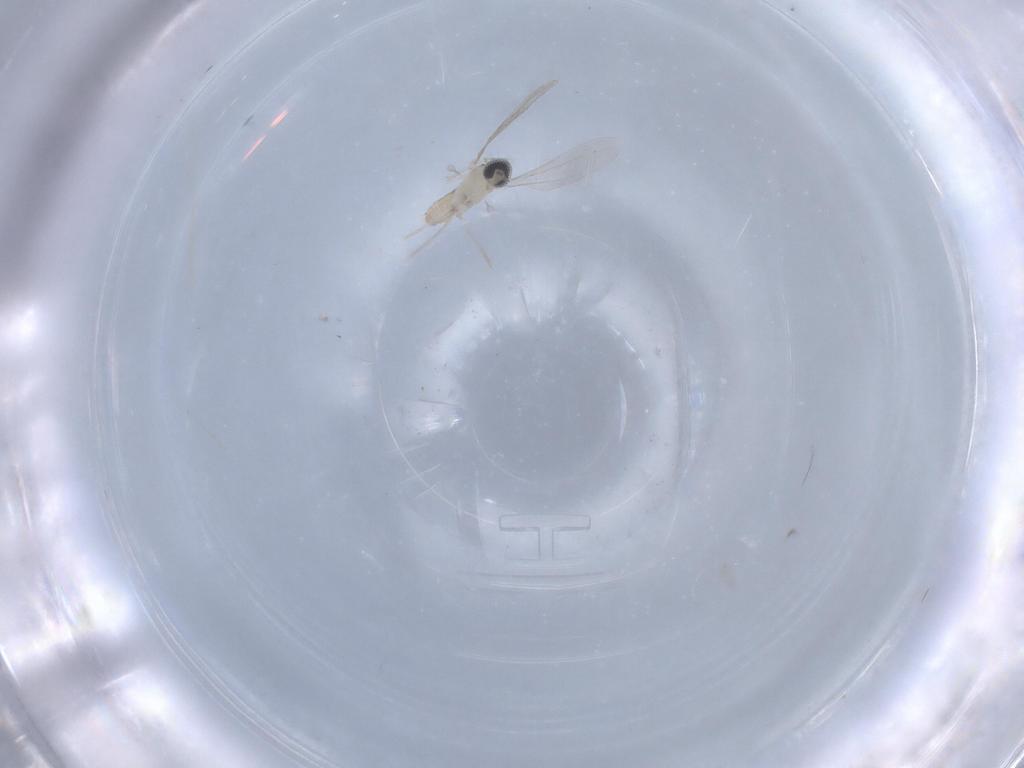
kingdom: Animalia
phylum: Arthropoda
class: Insecta
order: Diptera
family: Cecidomyiidae
